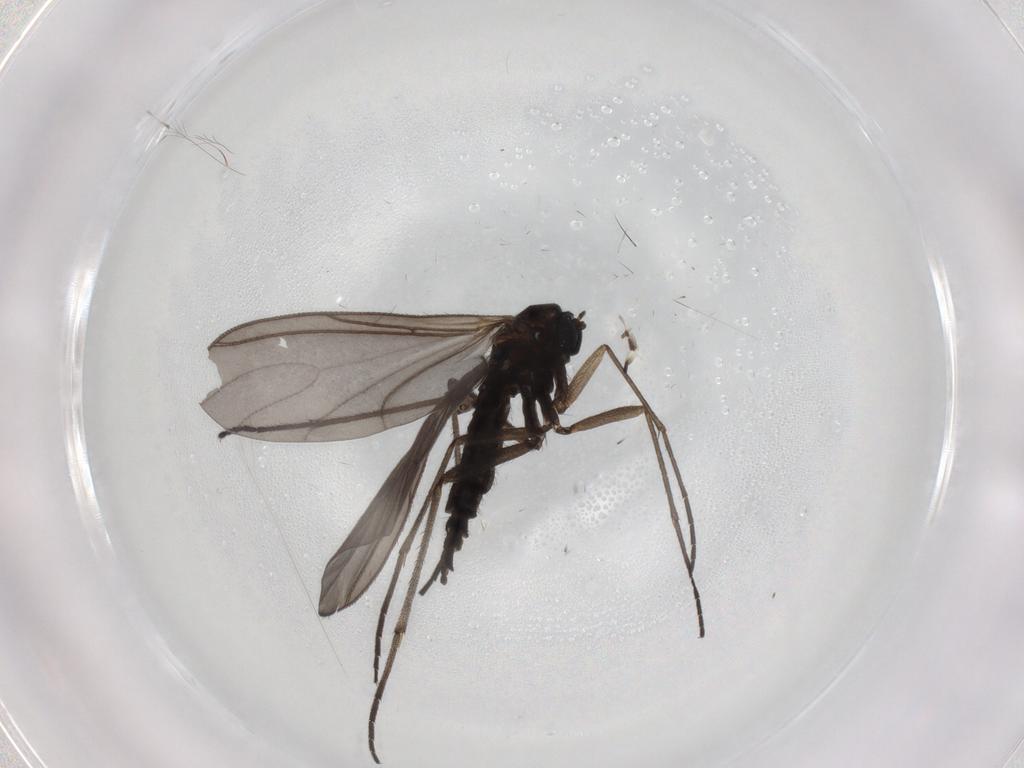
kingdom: Animalia
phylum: Arthropoda
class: Insecta
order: Diptera
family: Sciaridae
